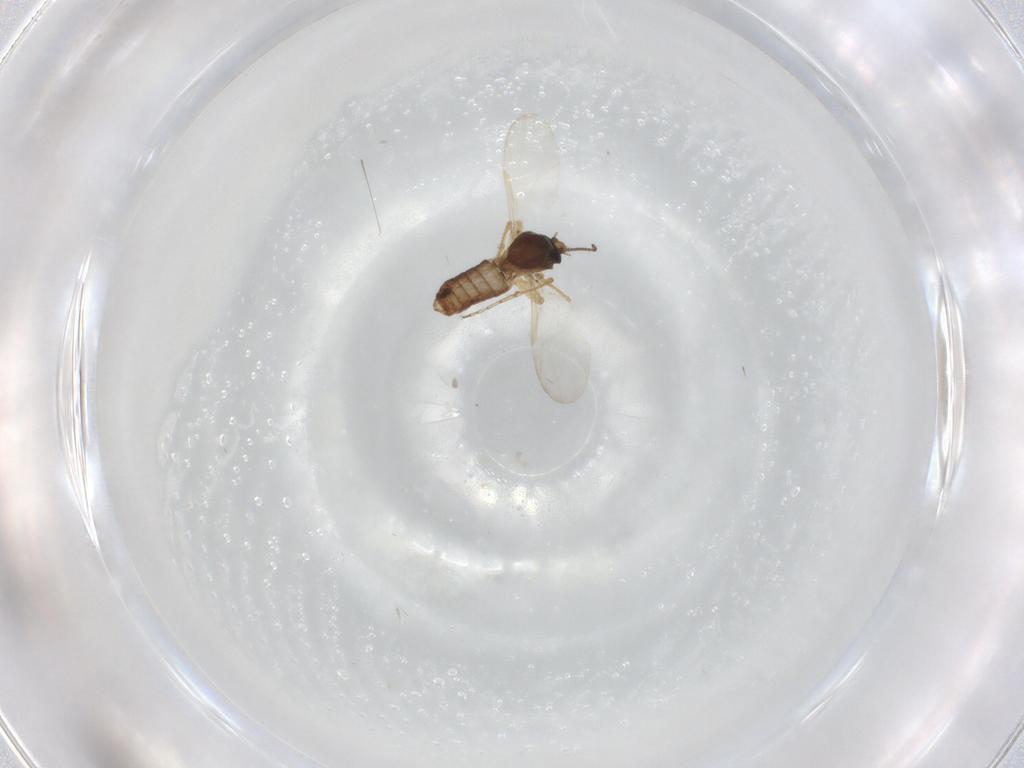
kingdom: Animalia
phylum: Arthropoda
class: Insecta
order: Diptera
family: Ceratopogonidae
